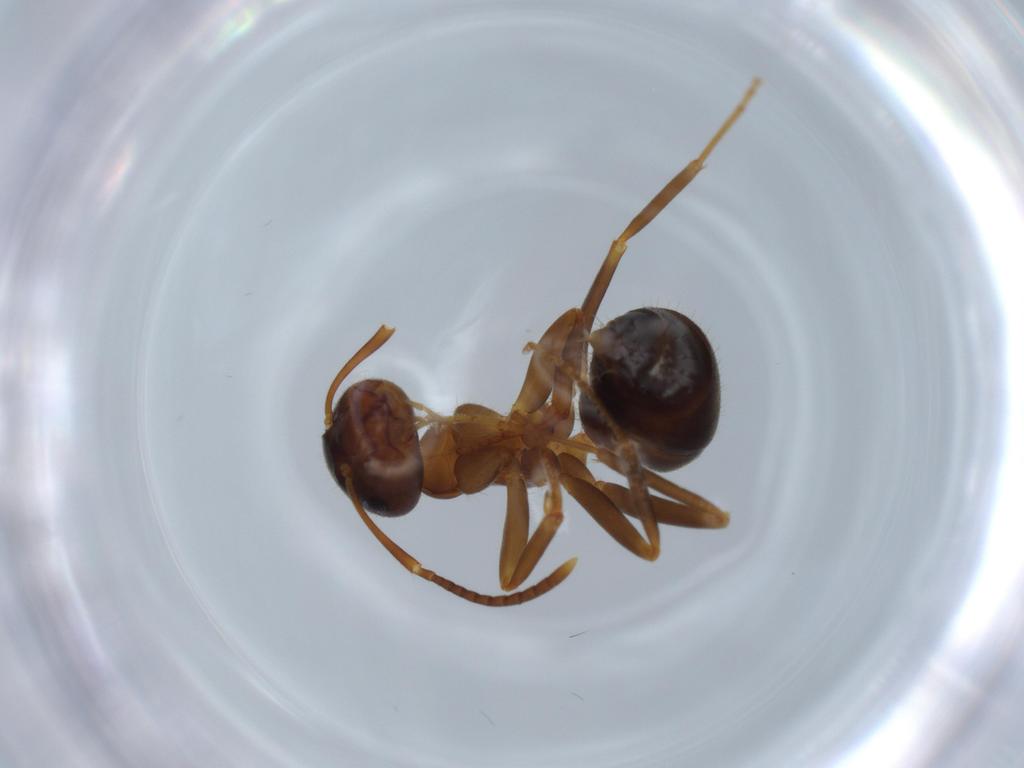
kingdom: Animalia
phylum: Arthropoda
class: Insecta
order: Hymenoptera
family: Formicidae
